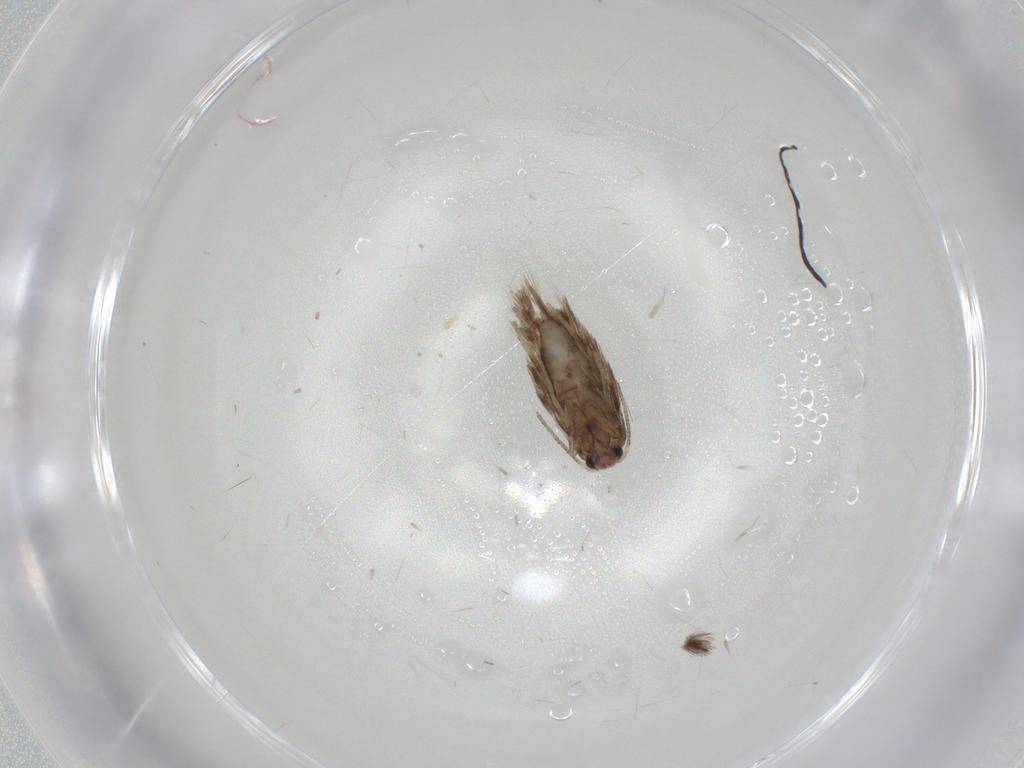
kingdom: Animalia
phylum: Arthropoda
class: Insecta
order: Lepidoptera
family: Nepticulidae
